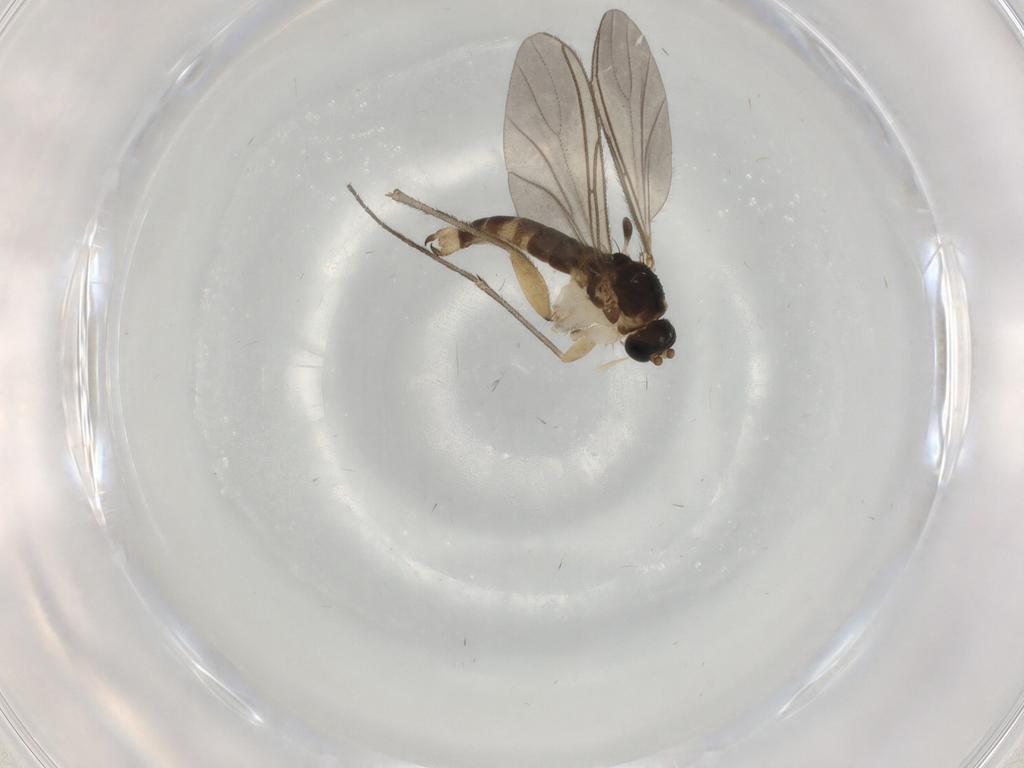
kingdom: Animalia
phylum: Arthropoda
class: Insecta
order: Diptera
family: Sciaridae
